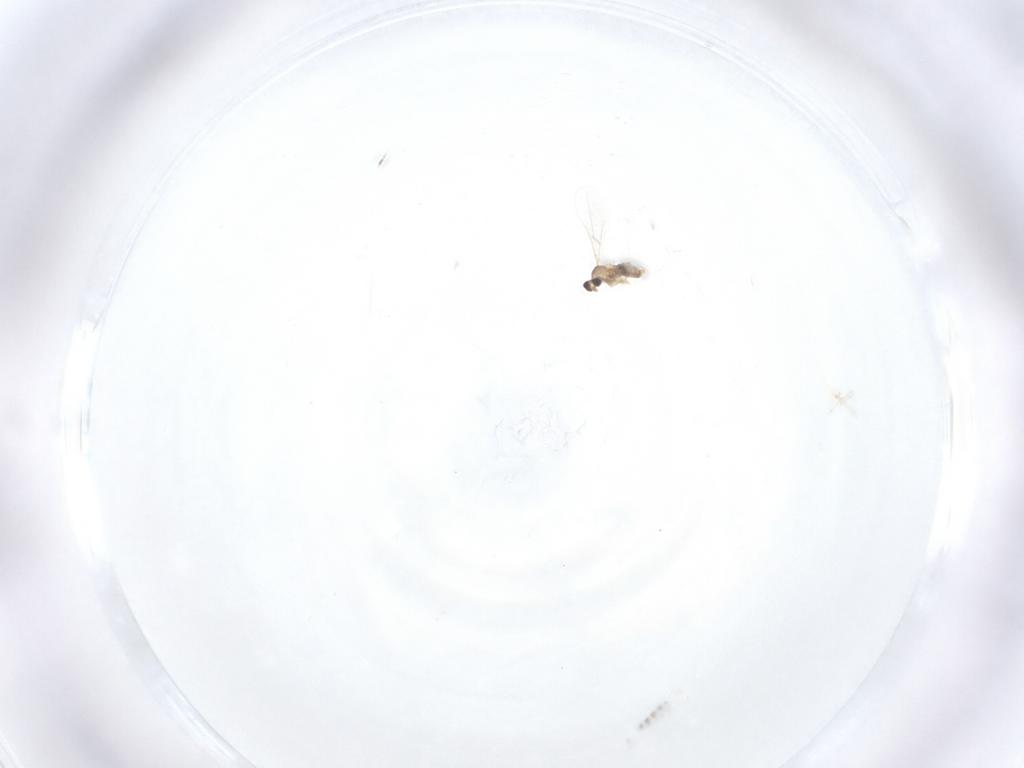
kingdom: Animalia
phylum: Arthropoda
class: Insecta
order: Diptera
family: Cecidomyiidae
